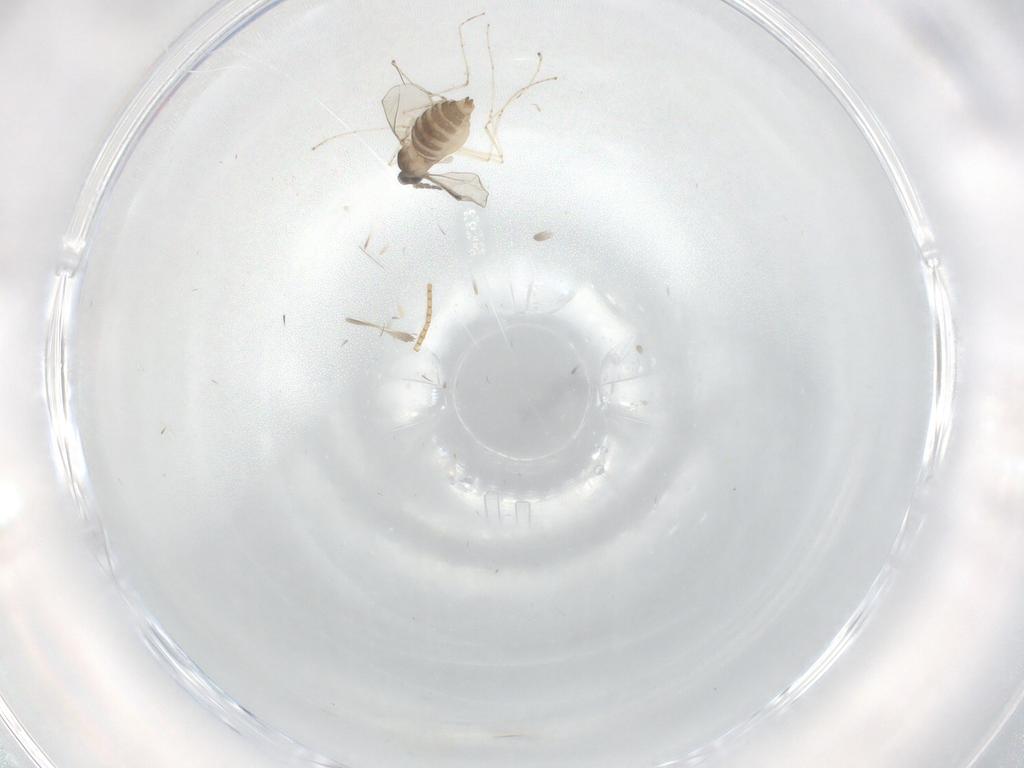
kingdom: Animalia
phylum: Arthropoda
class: Insecta
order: Diptera
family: Cecidomyiidae
